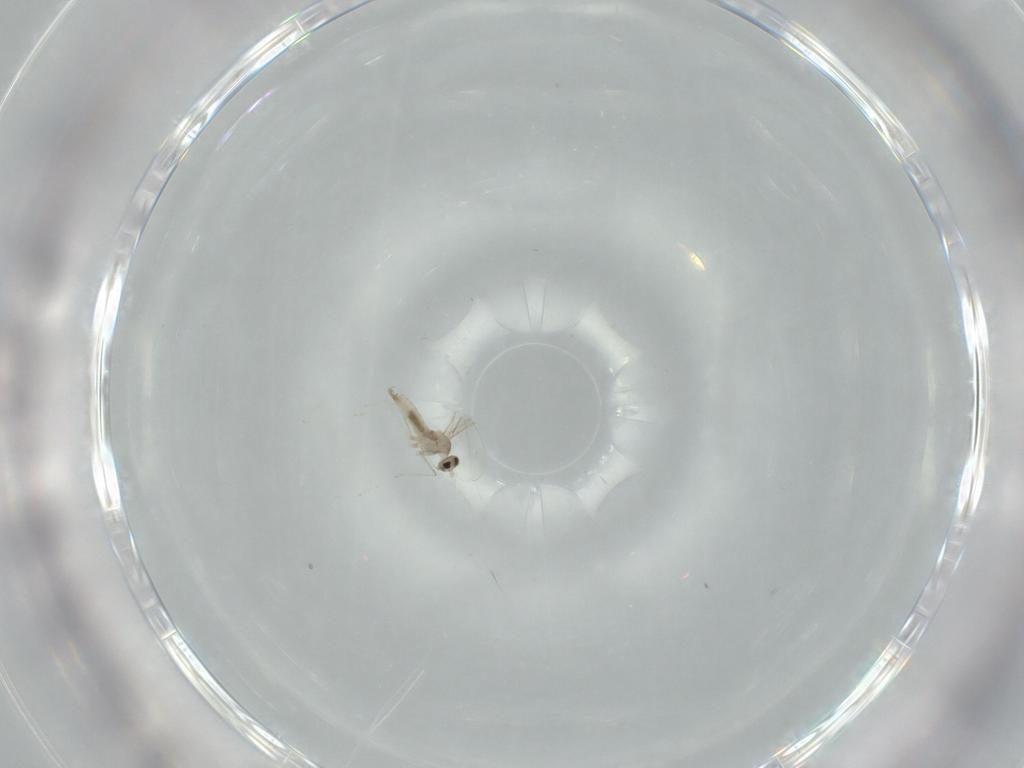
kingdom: Animalia
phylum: Arthropoda
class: Insecta
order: Diptera
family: Cecidomyiidae
